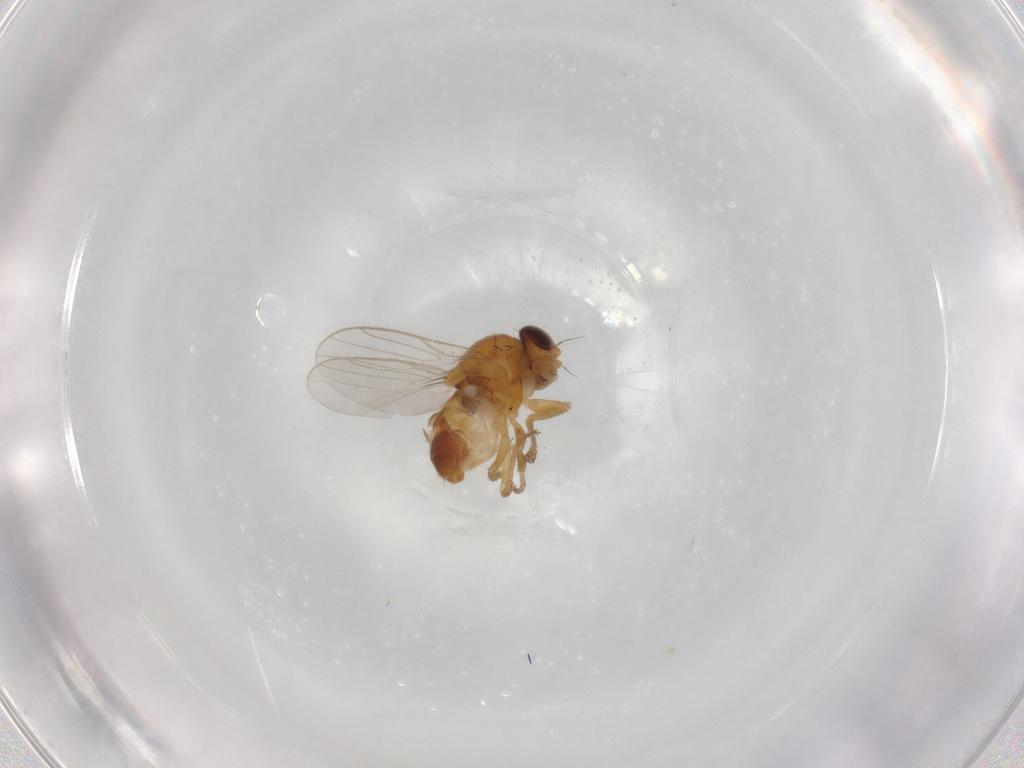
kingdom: Animalia
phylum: Arthropoda
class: Insecta
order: Diptera
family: Chloropidae
